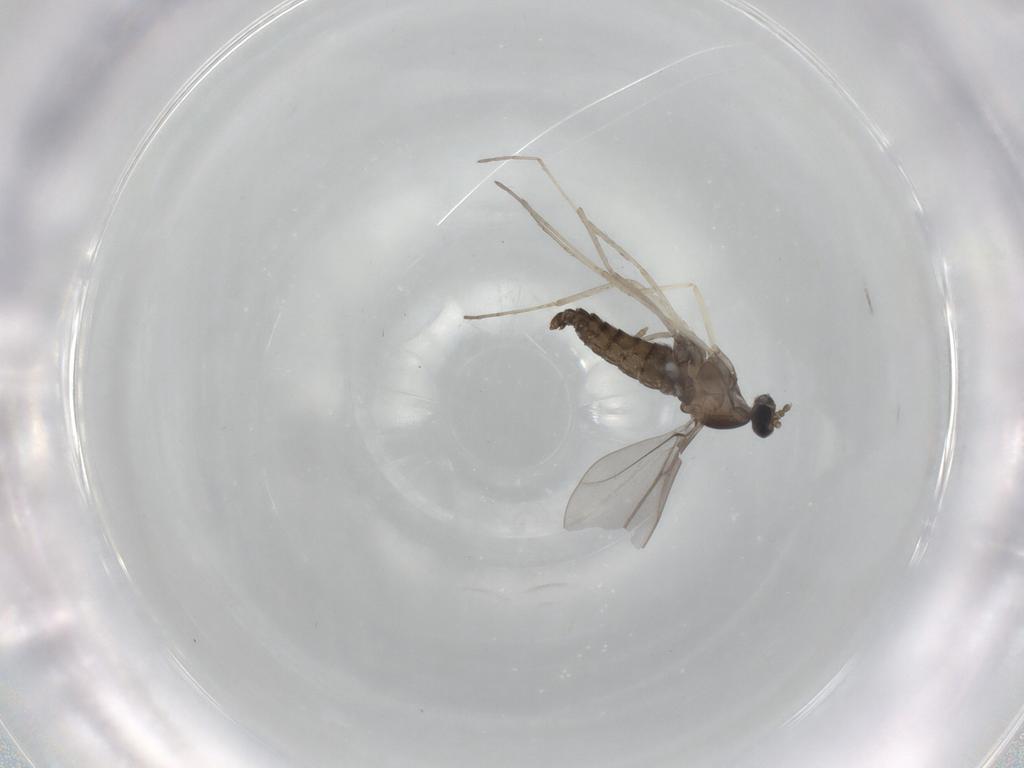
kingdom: Animalia
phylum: Arthropoda
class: Insecta
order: Diptera
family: Cecidomyiidae
